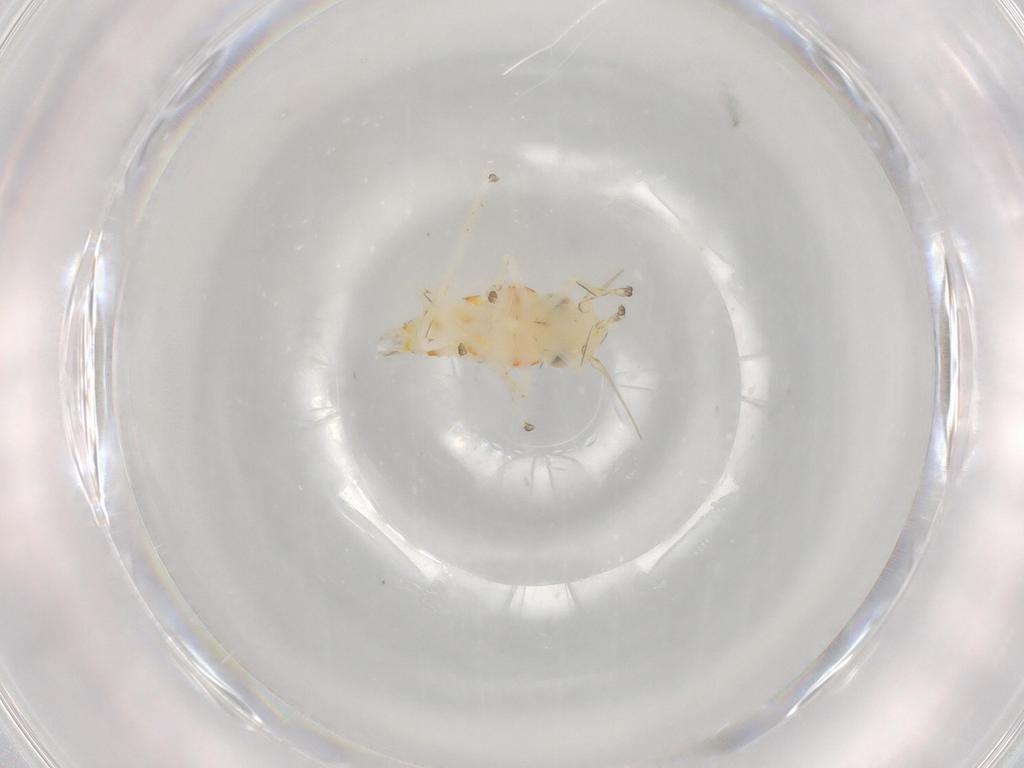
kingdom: Animalia
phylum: Arthropoda
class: Insecta
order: Hemiptera
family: Cicadellidae
